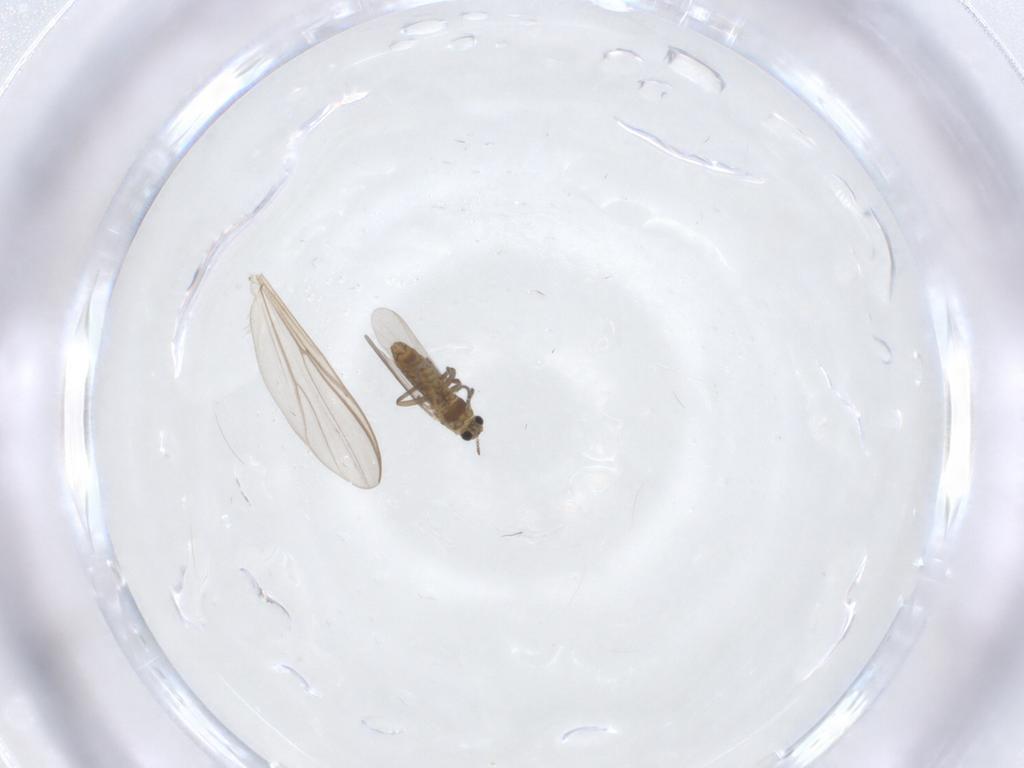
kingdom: Animalia
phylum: Arthropoda
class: Insecta
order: Diptera
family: Chironomidae
